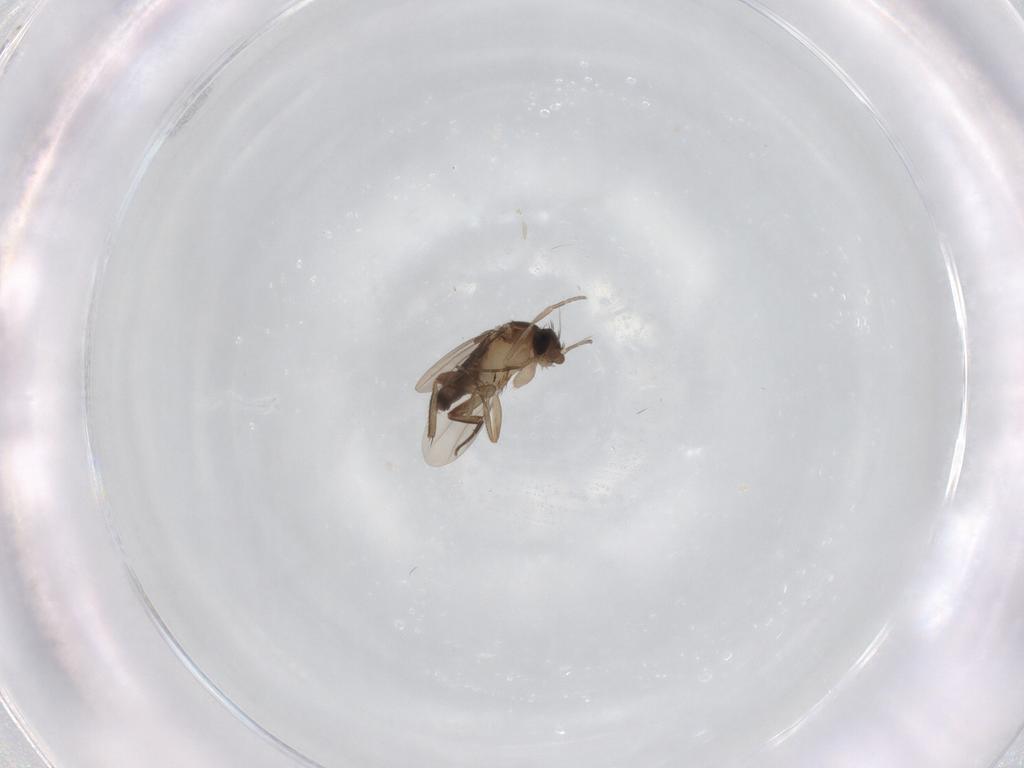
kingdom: Animalia
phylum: Arthropoda
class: Insecta
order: Diptera
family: Phoridae
